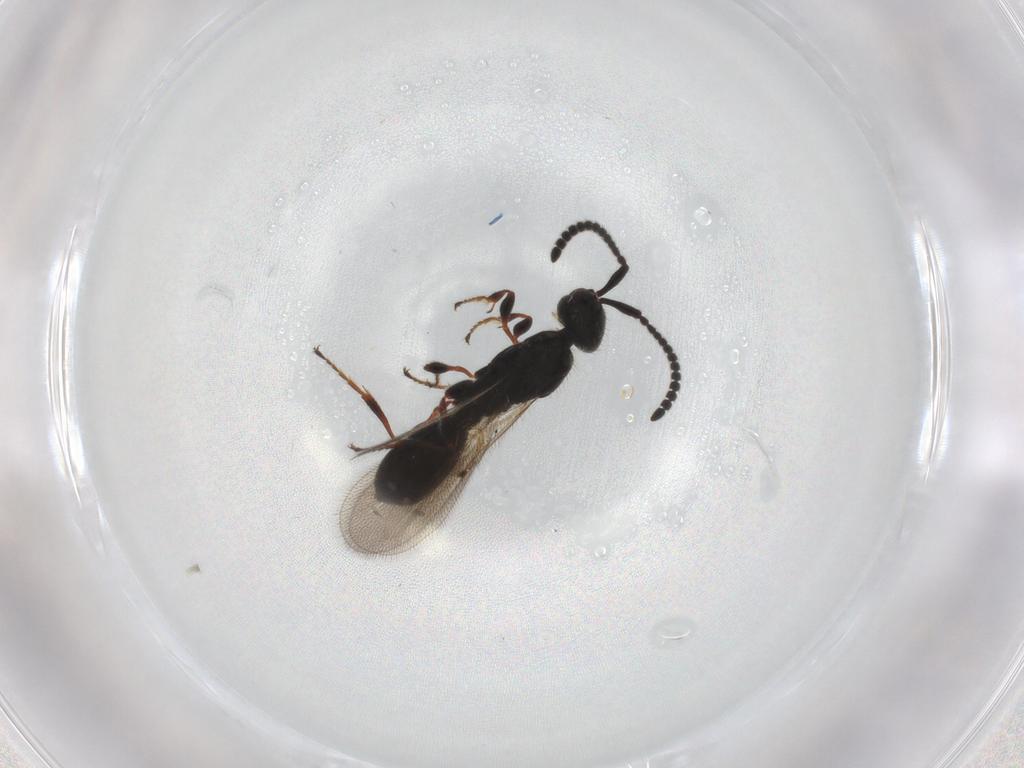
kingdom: Animalia
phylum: Arthropoda
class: Insecta
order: Hymenoptera
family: Diapriidae
